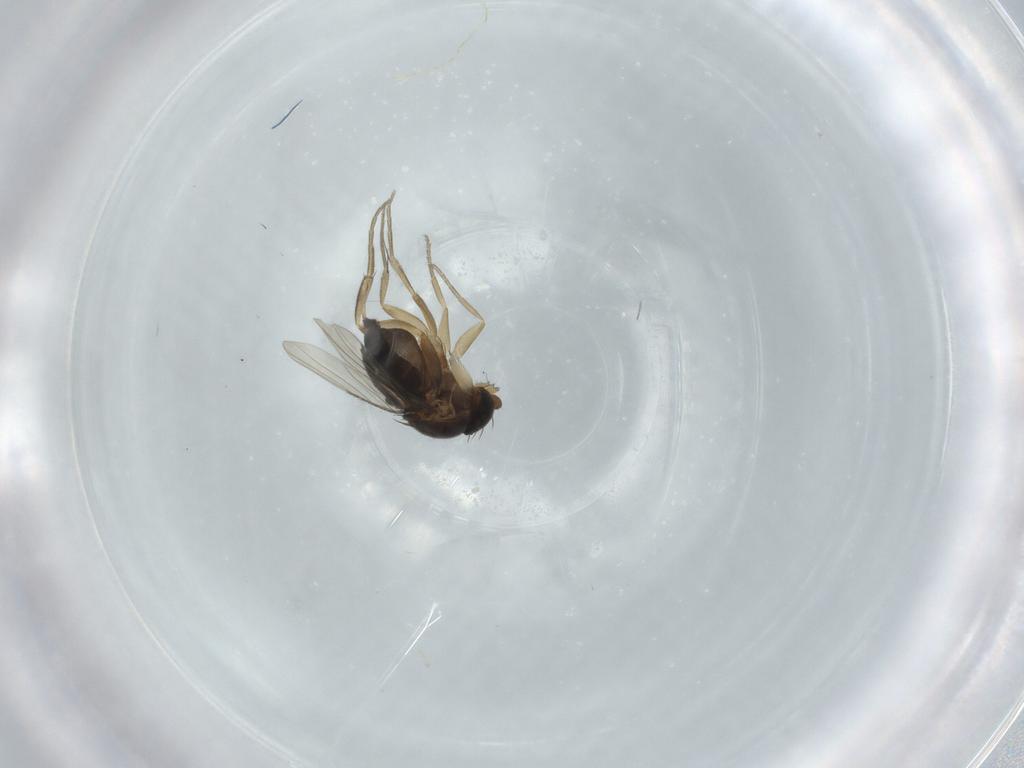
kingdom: Animalia
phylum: Arthropoda
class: Insecta
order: Diptera
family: Phoridae
